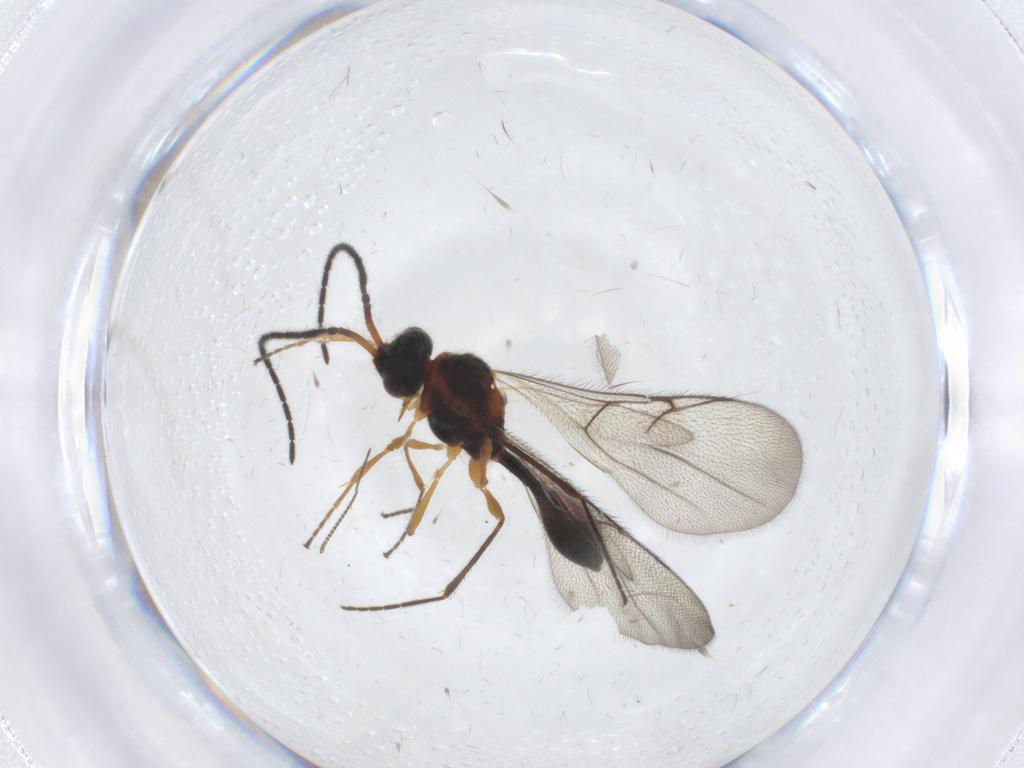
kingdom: Animalia
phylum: Arthropoda
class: Insecta
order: Hymenoptera
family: Diapriidae
